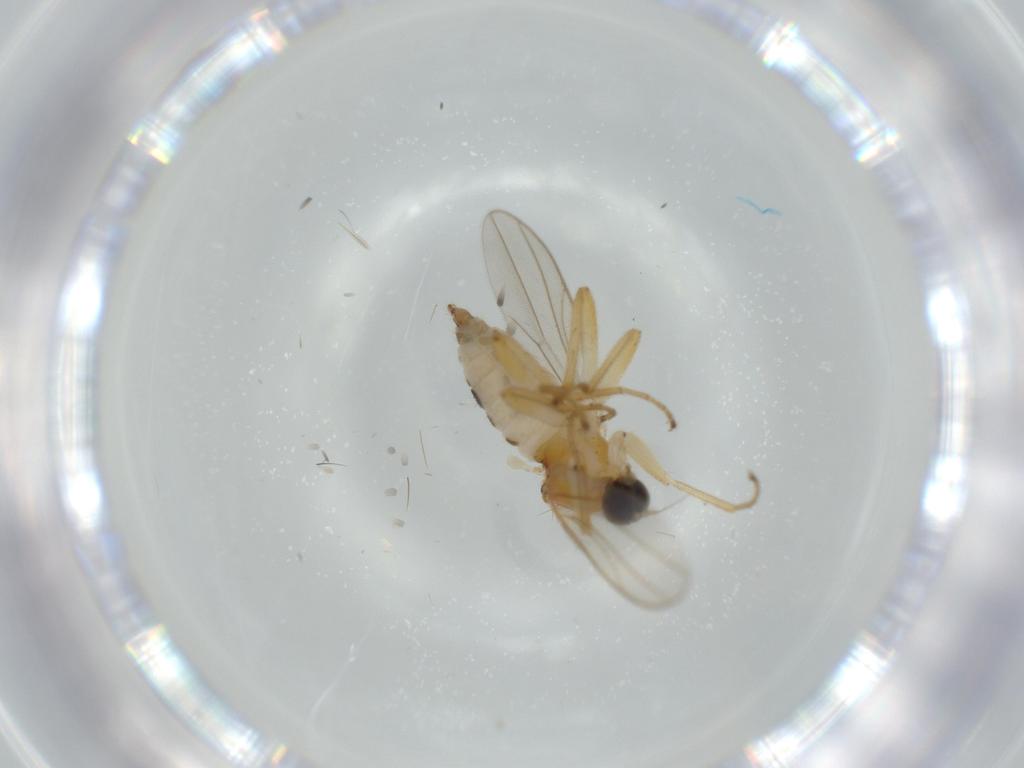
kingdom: Animalia
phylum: Arthropoda
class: Insecta
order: Diptera
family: Hybotidae
